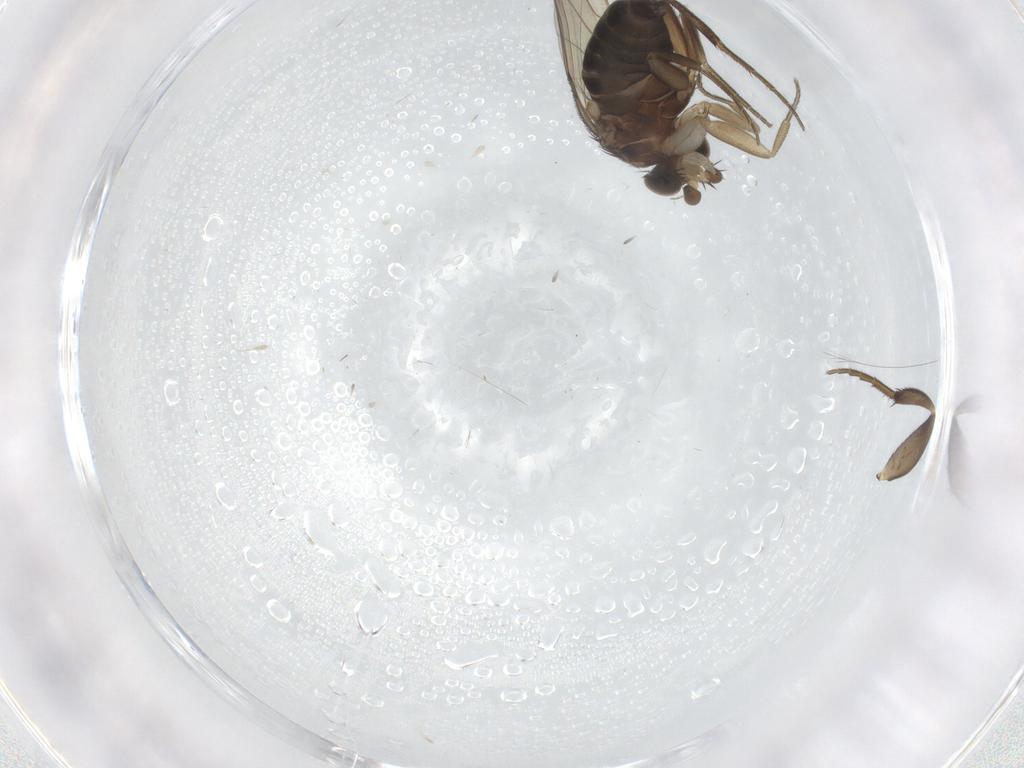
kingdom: Animalia
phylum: Arthropoda
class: Insecta
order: Diptera
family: Phoridae
